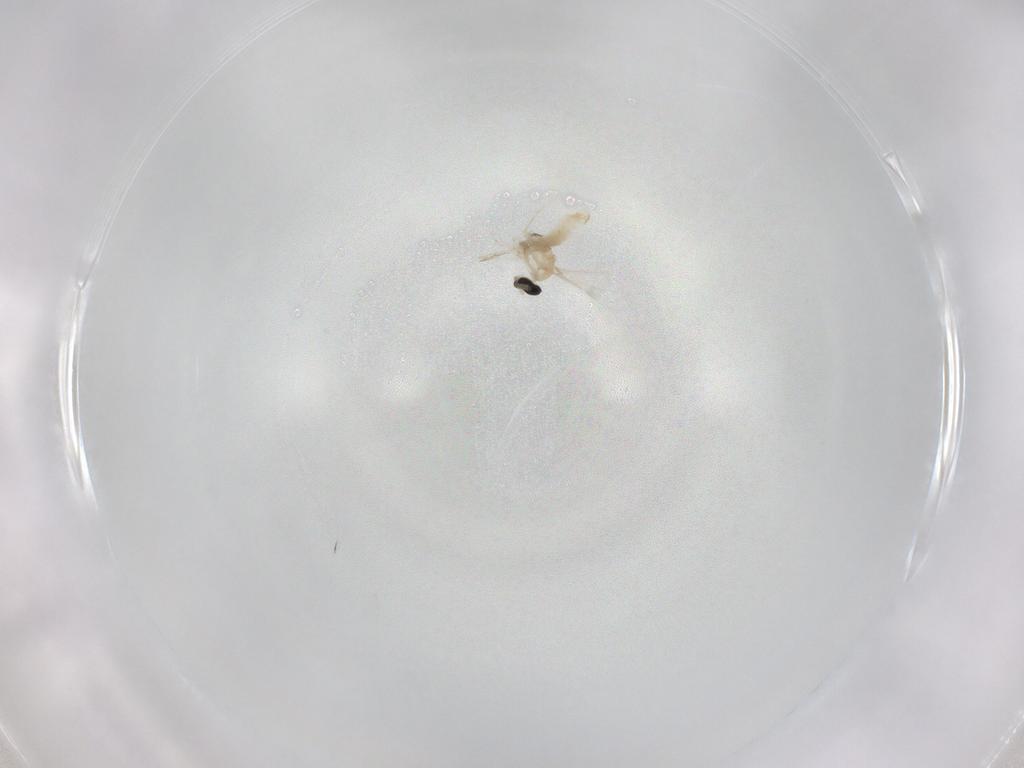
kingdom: Animalia
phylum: Arthropoda
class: Insecta
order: Diptera
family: Cecidomyiidae
